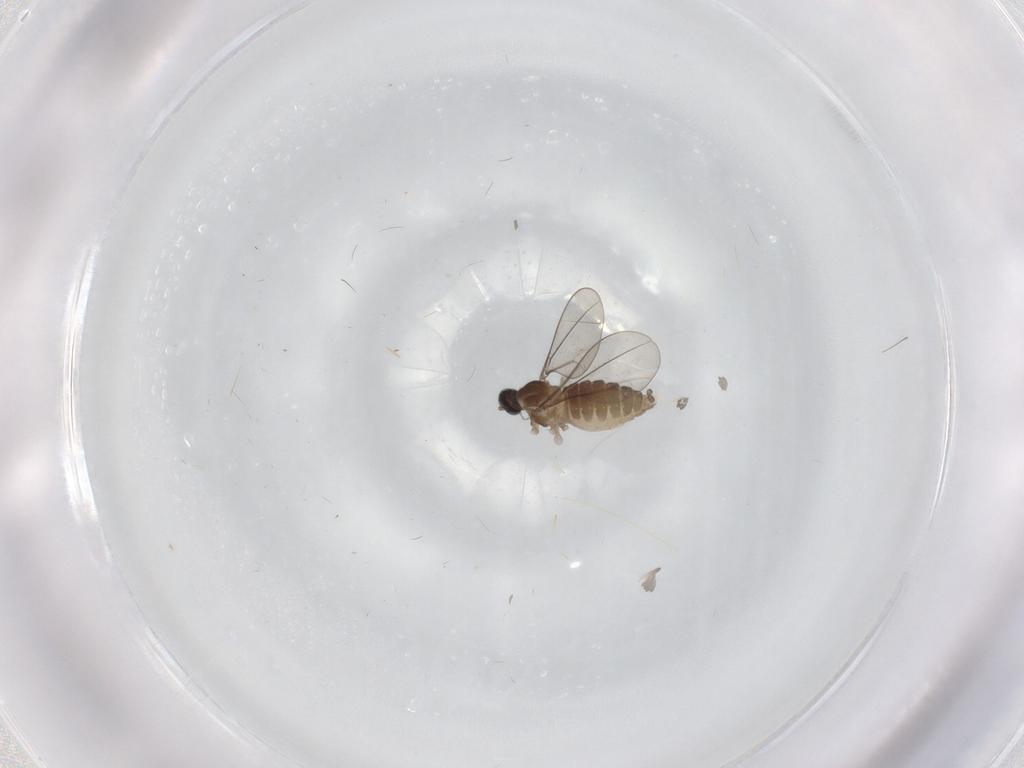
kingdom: Animalia
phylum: Arthropoda
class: Insecta
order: Diptera
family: Cecidomyiidae
